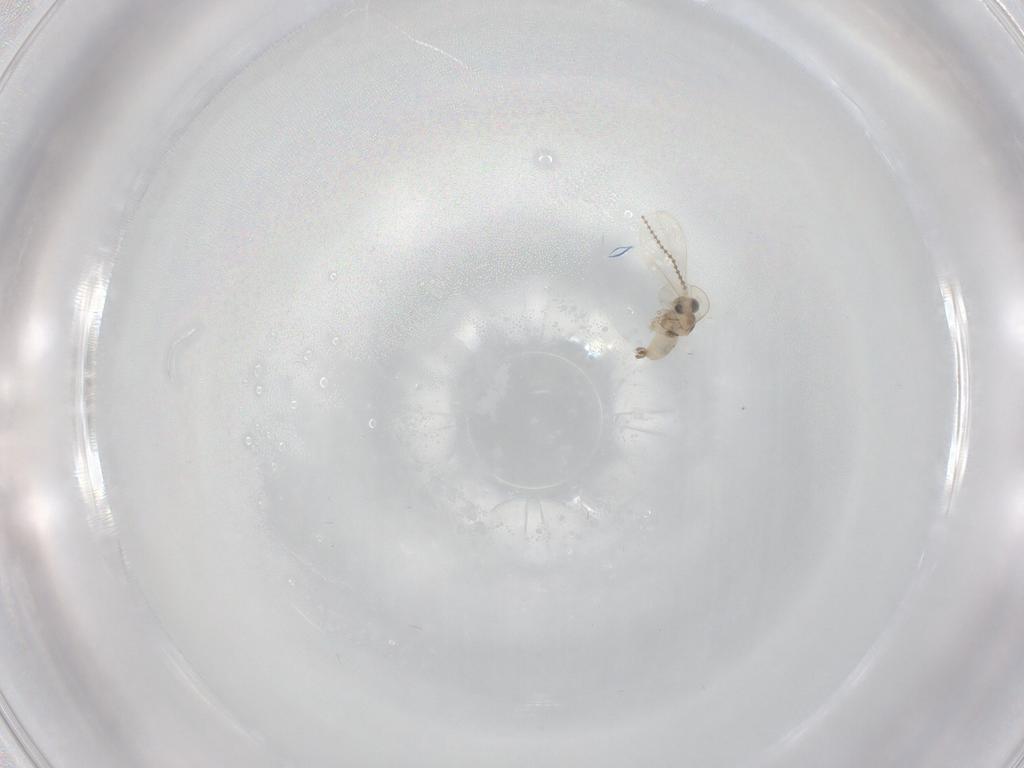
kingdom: Animalia
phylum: Arthropoda
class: Insecta
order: Diptera
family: Cecidomyiidae
